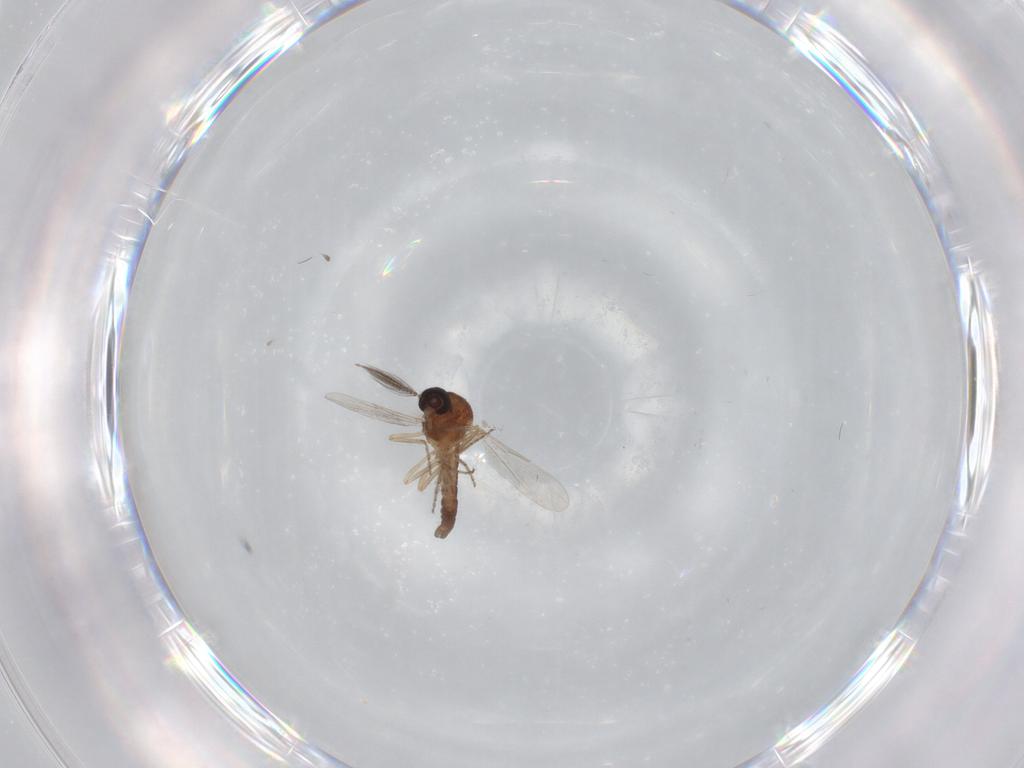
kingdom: Animalia
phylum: Arthropoda
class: Insecta
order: Diptera
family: Ceratopogonidae
